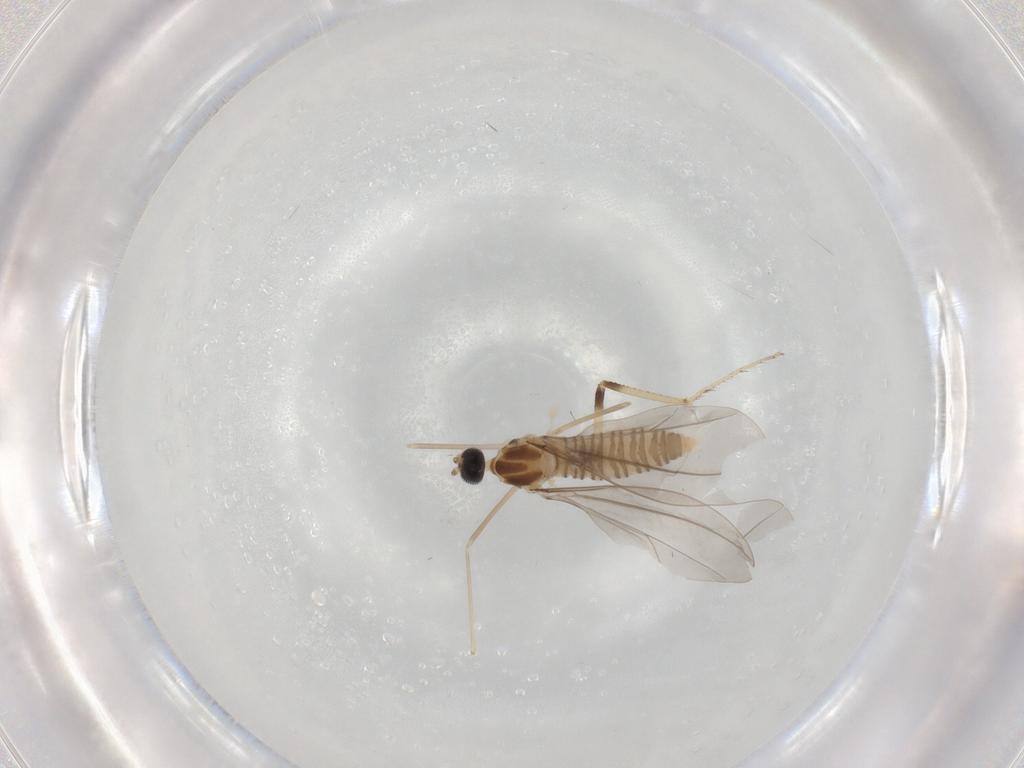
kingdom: Animalia
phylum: Arthropoda
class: Insecta
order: Diptera
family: Cecidomyiidae
